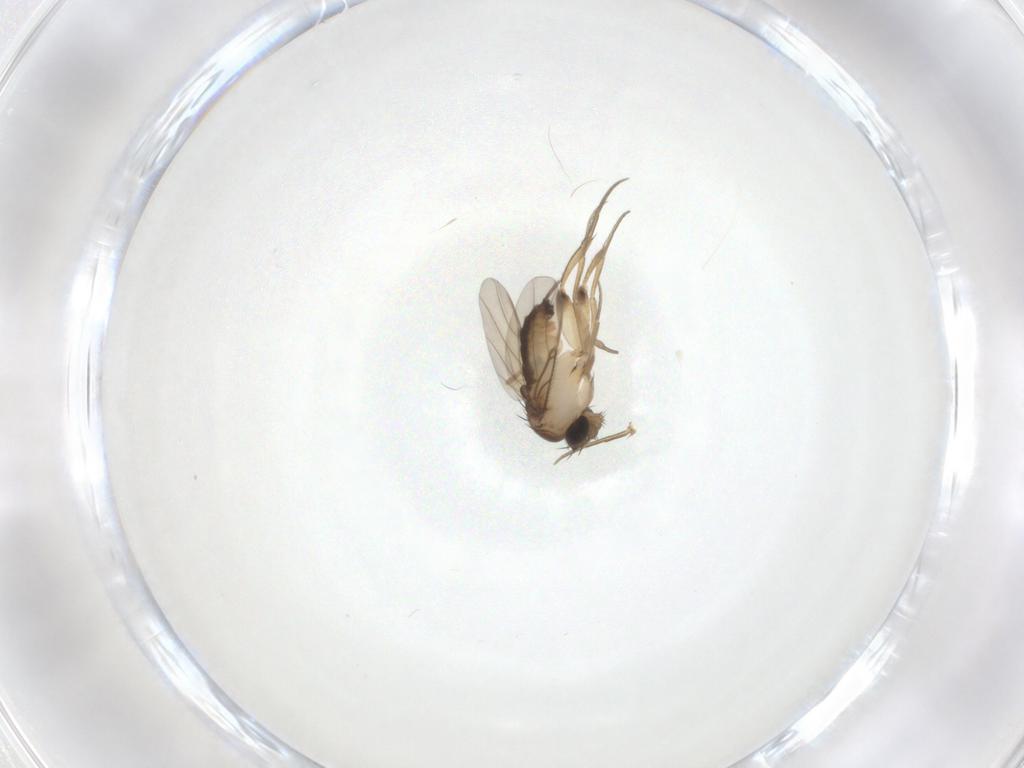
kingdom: Animalia
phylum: Arthropoda
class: Insecta
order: Diptera
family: Phoridae
